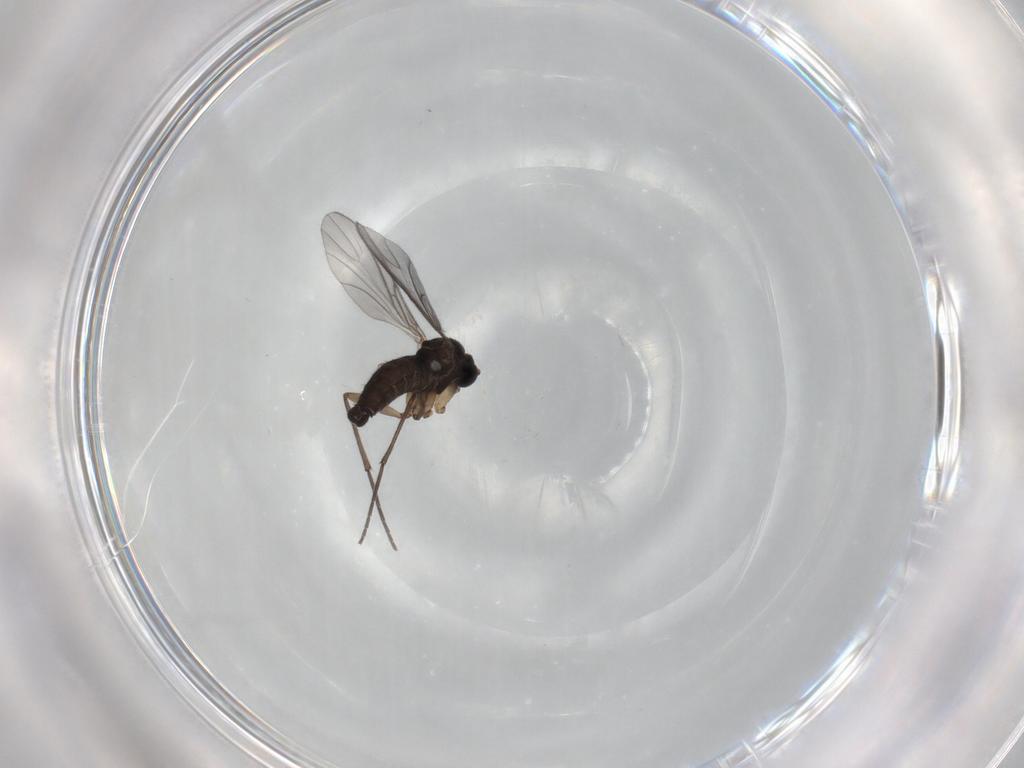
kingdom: Animalia
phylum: Arthropoda
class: Insecta
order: Diptera
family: Sciaridae
